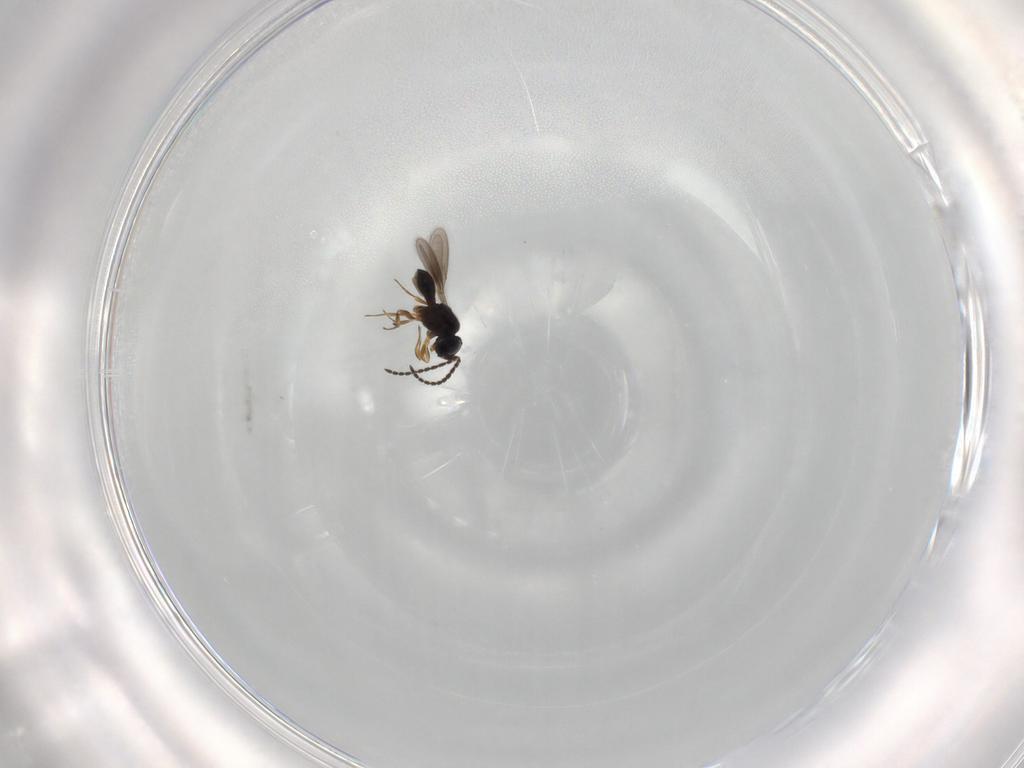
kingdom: Animalia
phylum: Arthropoda
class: Insecta
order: Hymenoptera
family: Scelionidae
